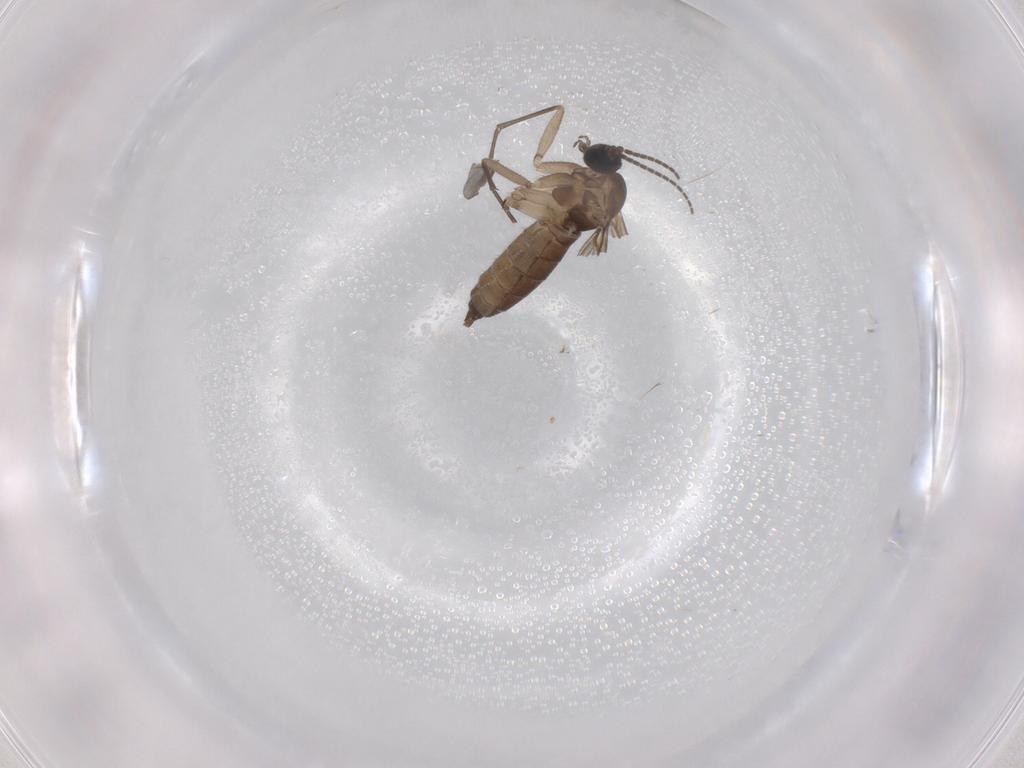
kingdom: Animalia
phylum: Arthropoda
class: Insecta
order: Diptera
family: Sciaridae
